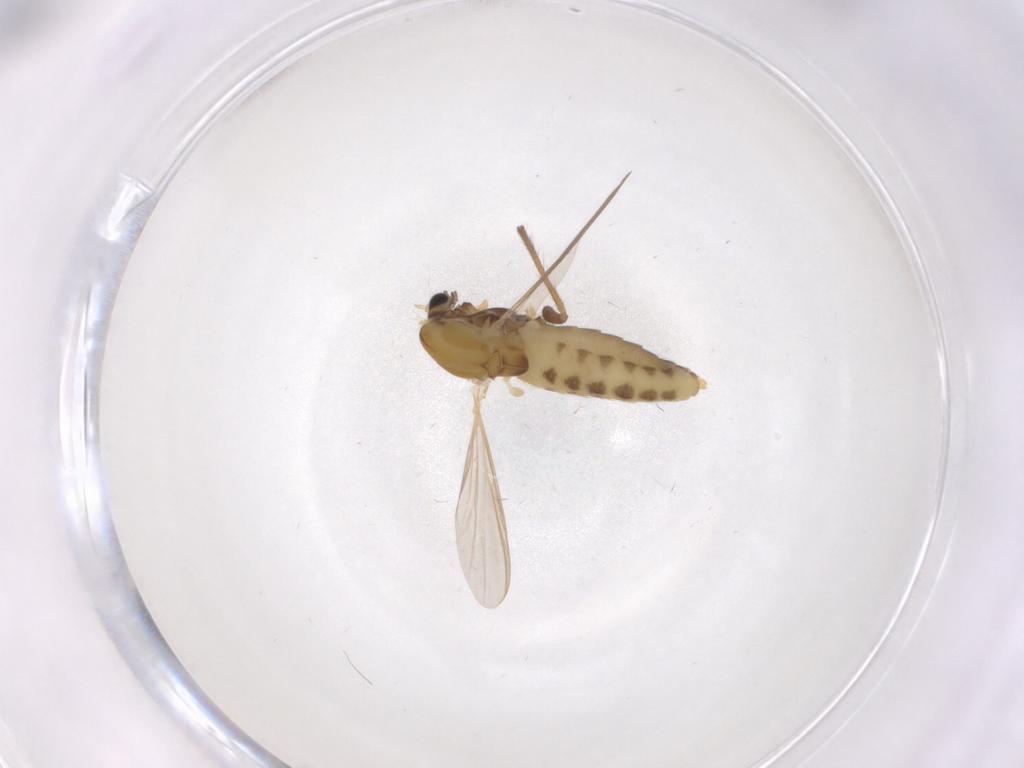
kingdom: Animalia
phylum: Arthropoda
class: Insecta
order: Diptera
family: Chironomidae
